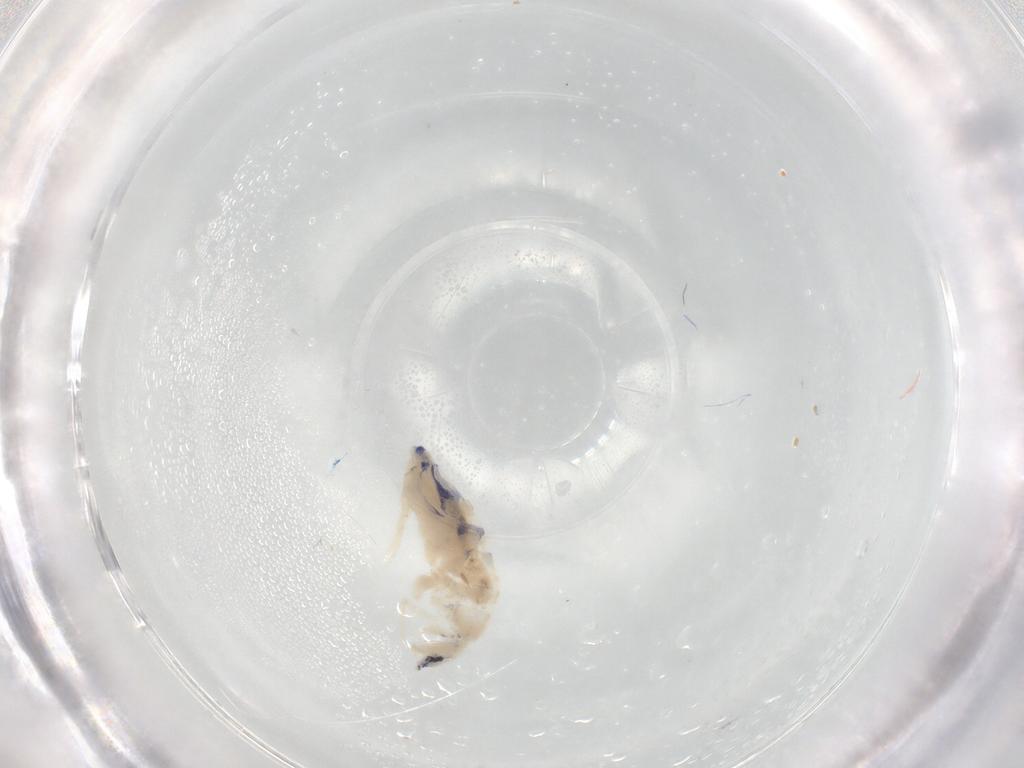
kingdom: Animalia
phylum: Arthropoda
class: Collembola
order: Entomobryomorpha
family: Entomobryidae
